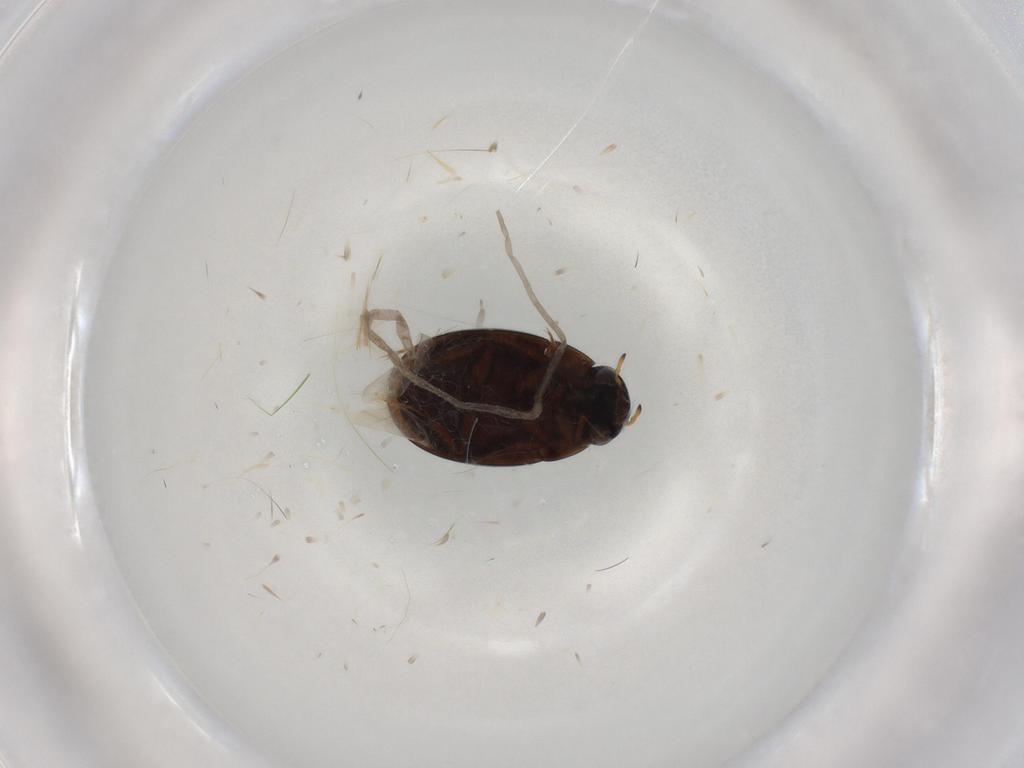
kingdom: Animalia
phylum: Arthropoda
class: Insecta
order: Coleoptera
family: Hydrophilidae
